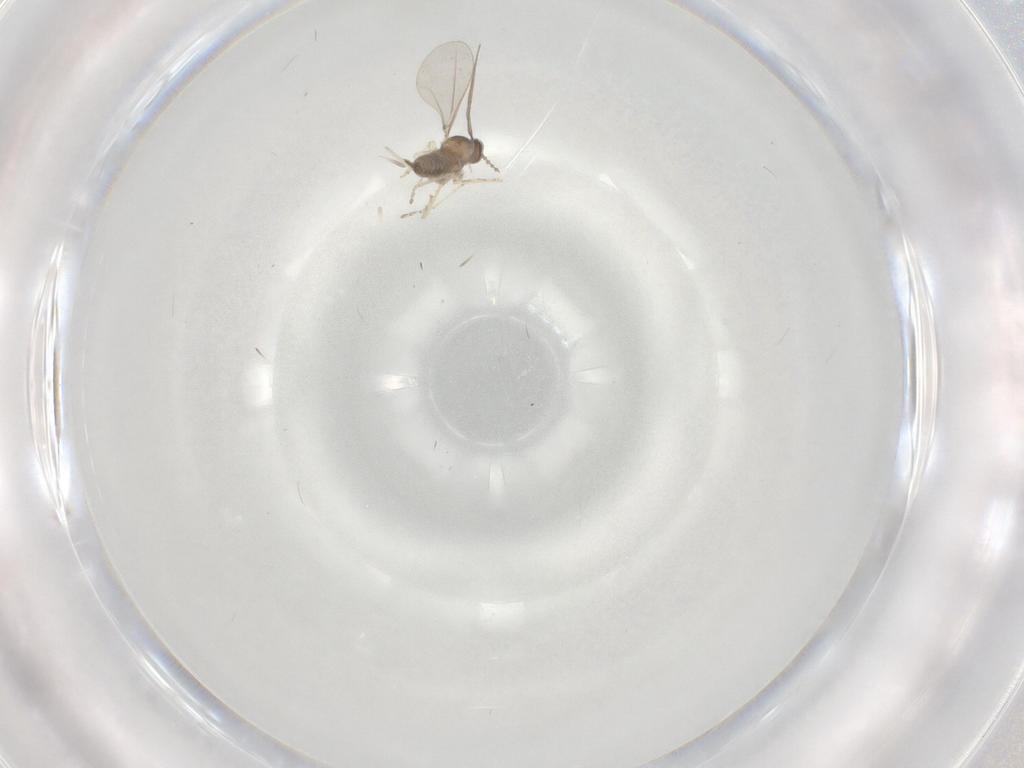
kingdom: Animalia
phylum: Arthropoda
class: Insecta
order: Diptera
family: Cecidomyiidae
